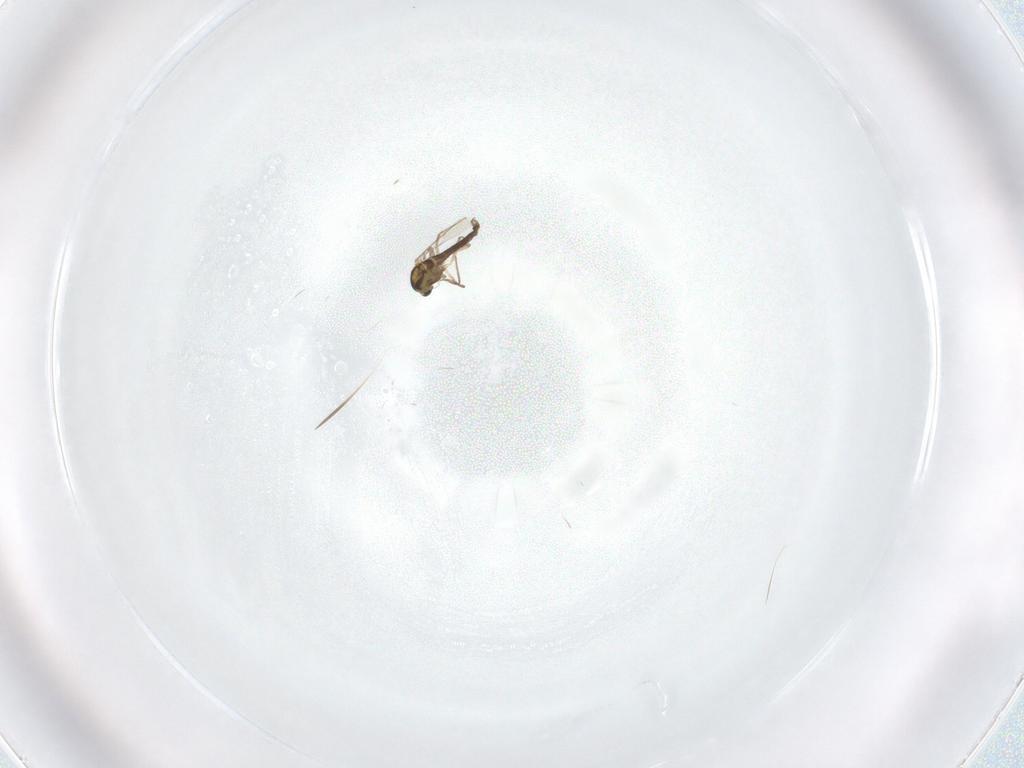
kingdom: Animalia
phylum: Arthropoda
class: Insecta
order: Diptera
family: Chironomidae
